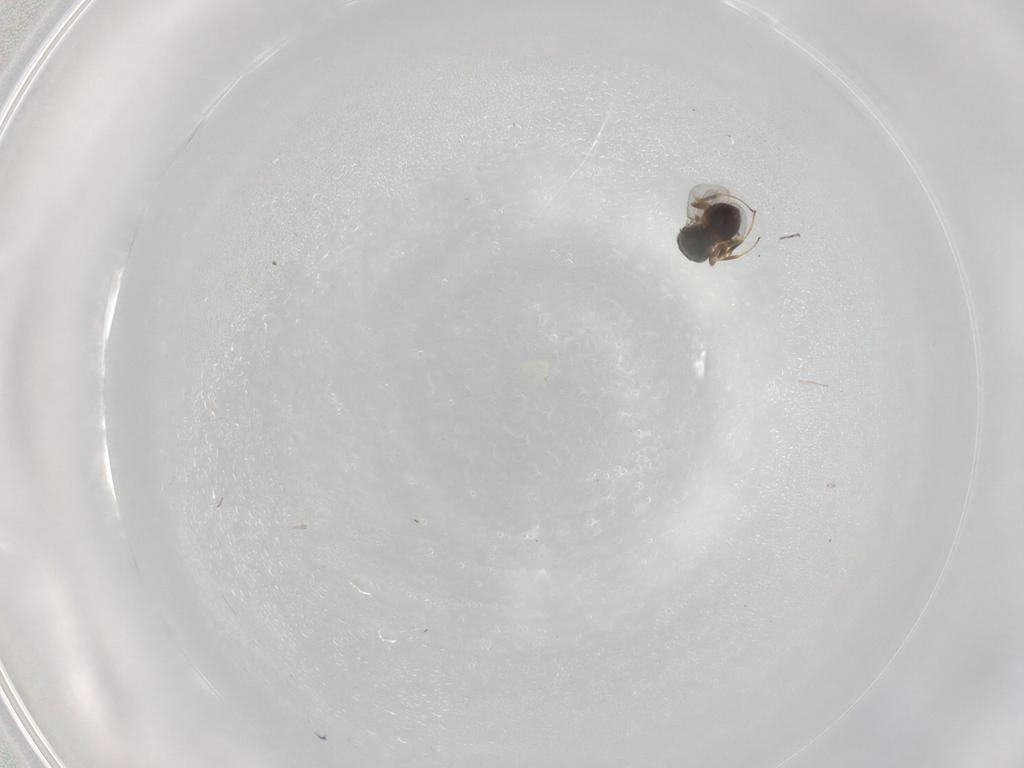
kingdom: Animalia
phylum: Arthropoda
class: Insecta
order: Hymenoptera
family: Platygastridae
